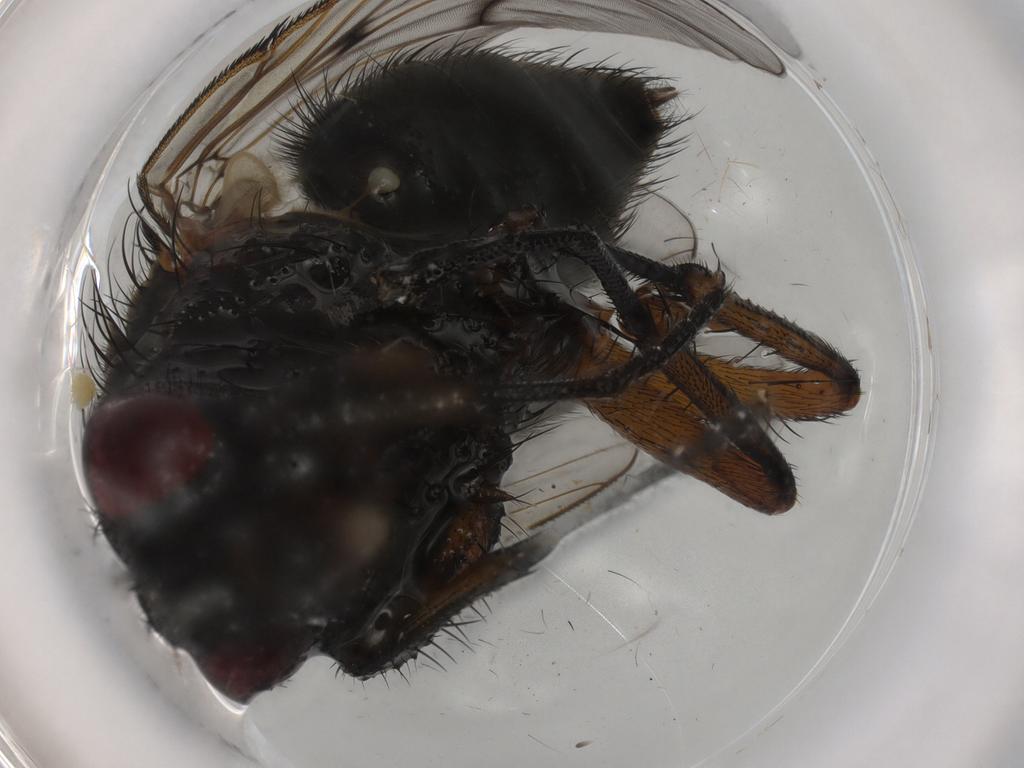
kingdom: Animalia
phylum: Arthropoda
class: Insecta
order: Diptera
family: Muscidae
